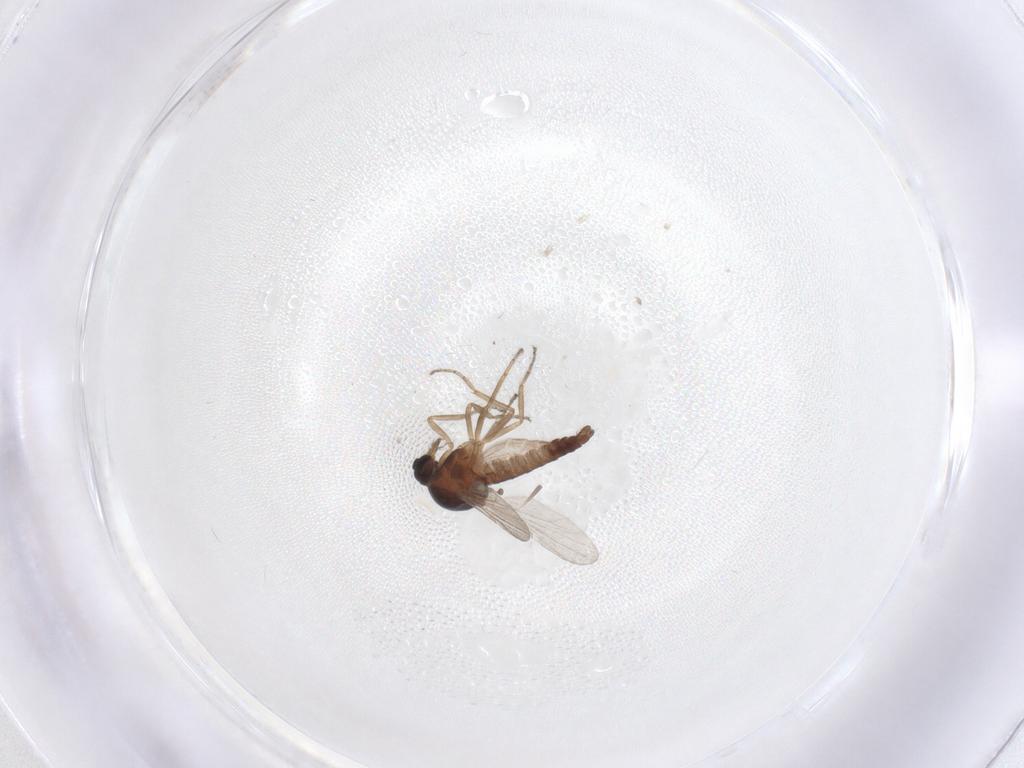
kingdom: Animalia
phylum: Arthropoda
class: Insecta
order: Diptera
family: Ceratopogonidae
